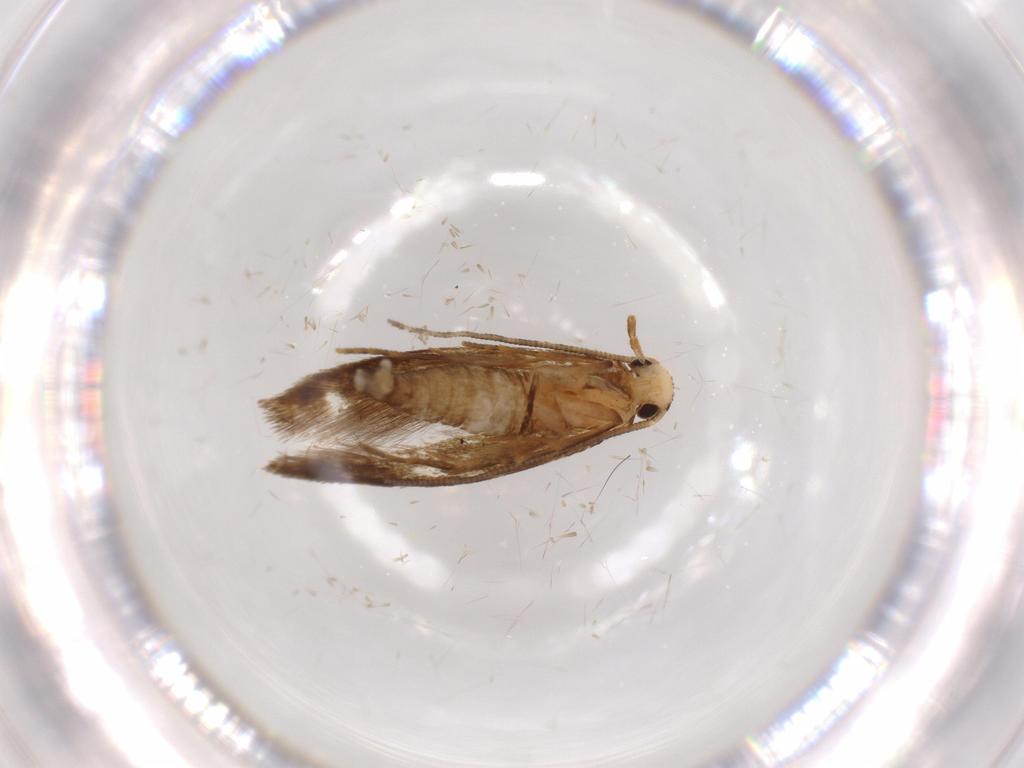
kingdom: Animalia
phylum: Arthropoda
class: Insecta
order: Lepidoptera
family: Tineidae
